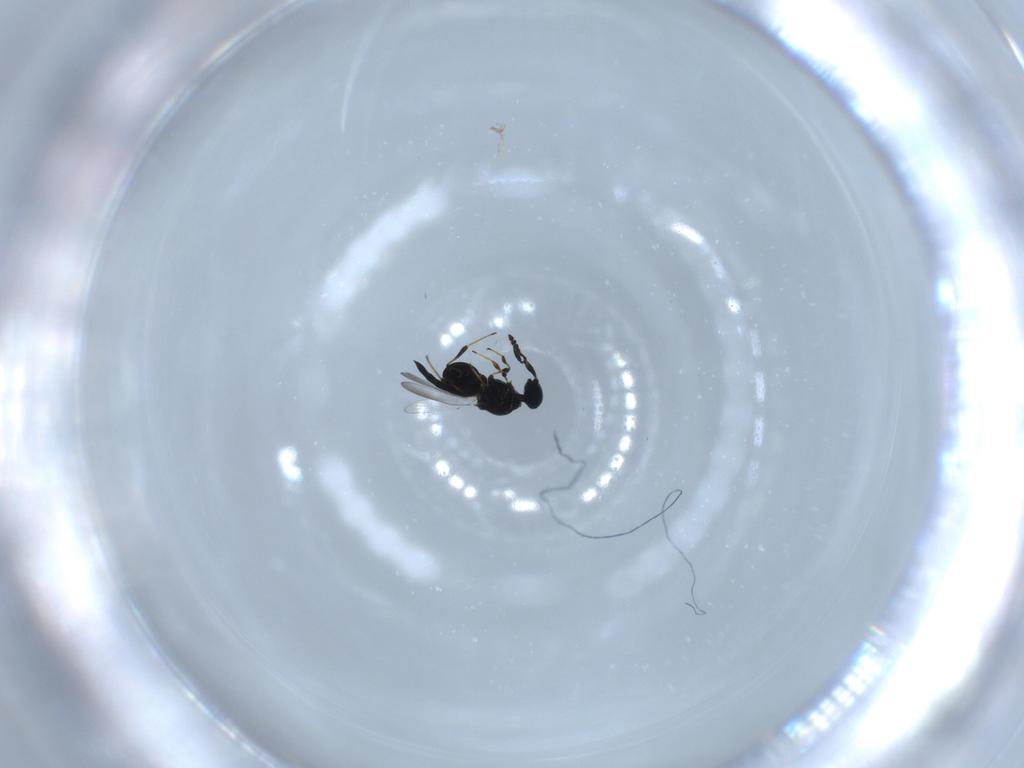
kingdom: Animalia
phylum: Arthropoda
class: Insecta
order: Hymenoptera
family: Platygastridae
